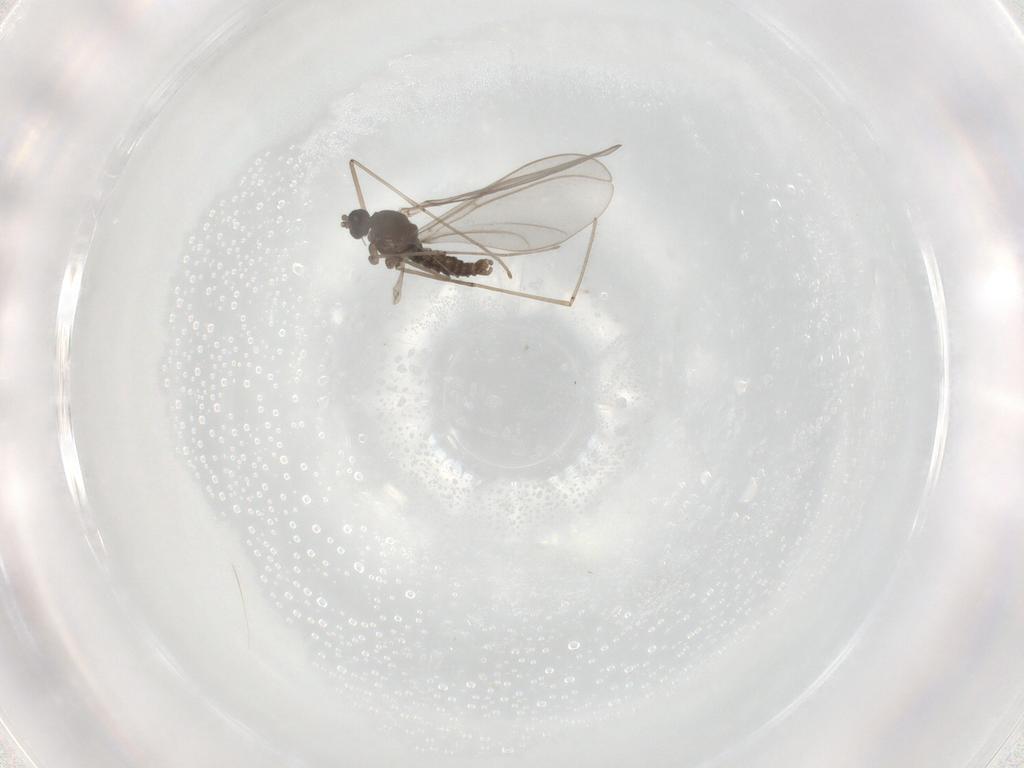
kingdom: Animalia
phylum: Arthropoda
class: Insecta
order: Diptera
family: Cecidomyiidae
